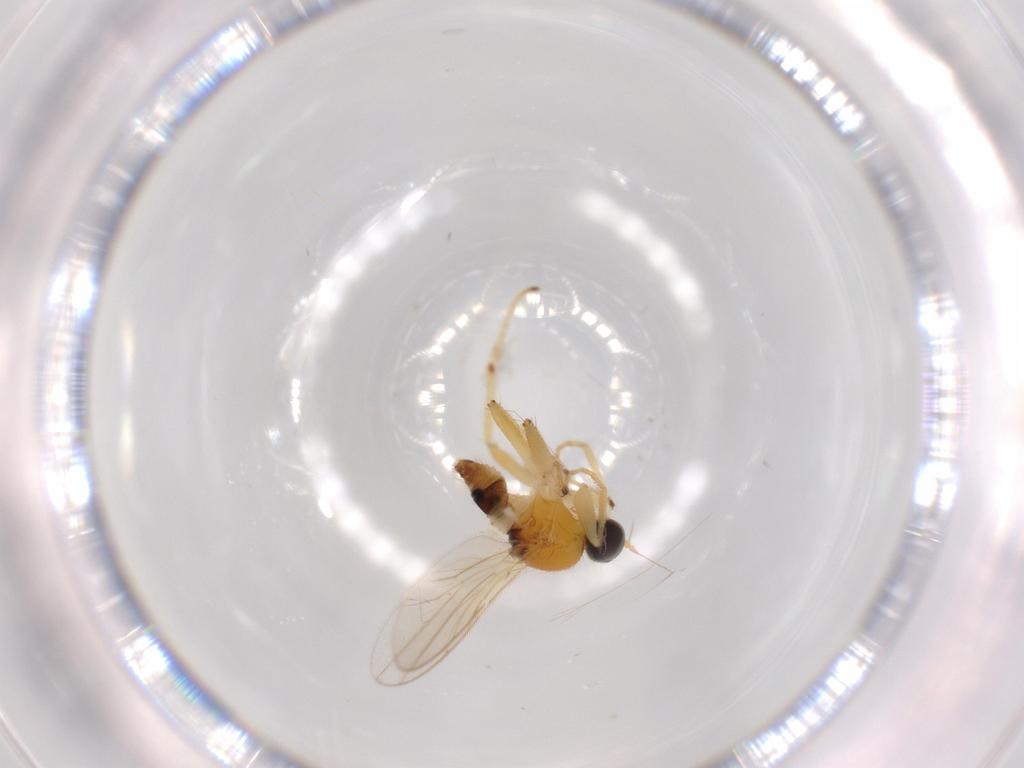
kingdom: Animalia
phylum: Arthropoda
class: Insecta
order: Diptera
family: Hybotidae
